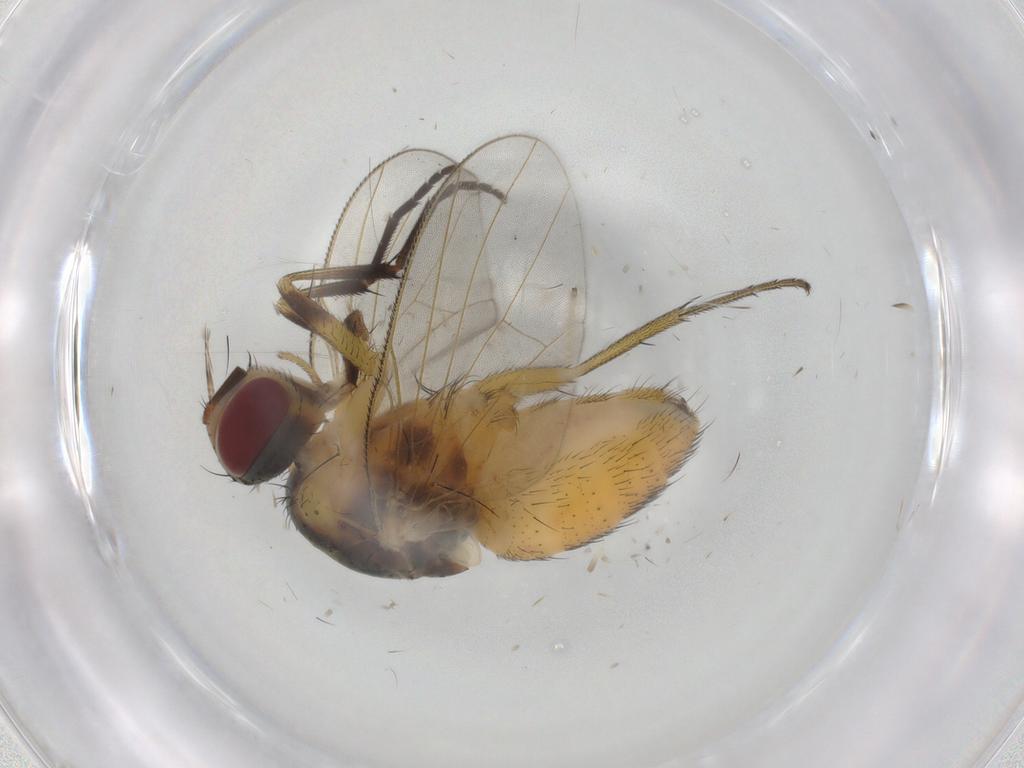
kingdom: Animalia
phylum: Arthropoda
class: Insecta
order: Diptera
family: Muscidae
